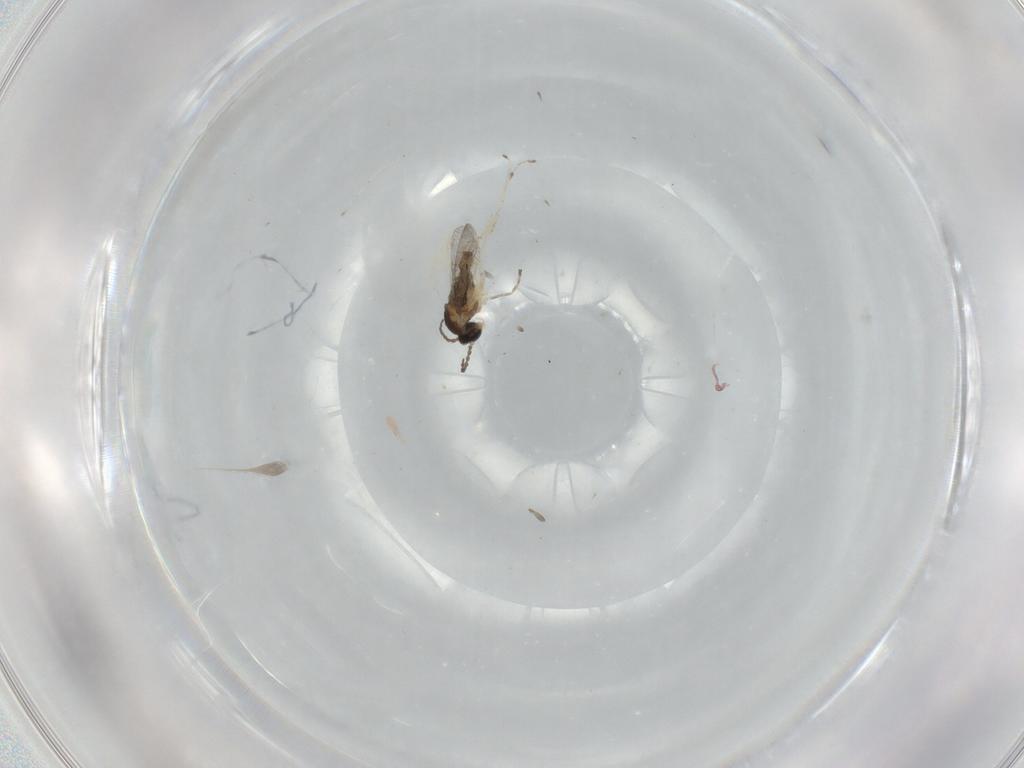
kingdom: Animalia
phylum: Arthropoda
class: Insecta
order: Diptera
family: Cecidomyiidae
